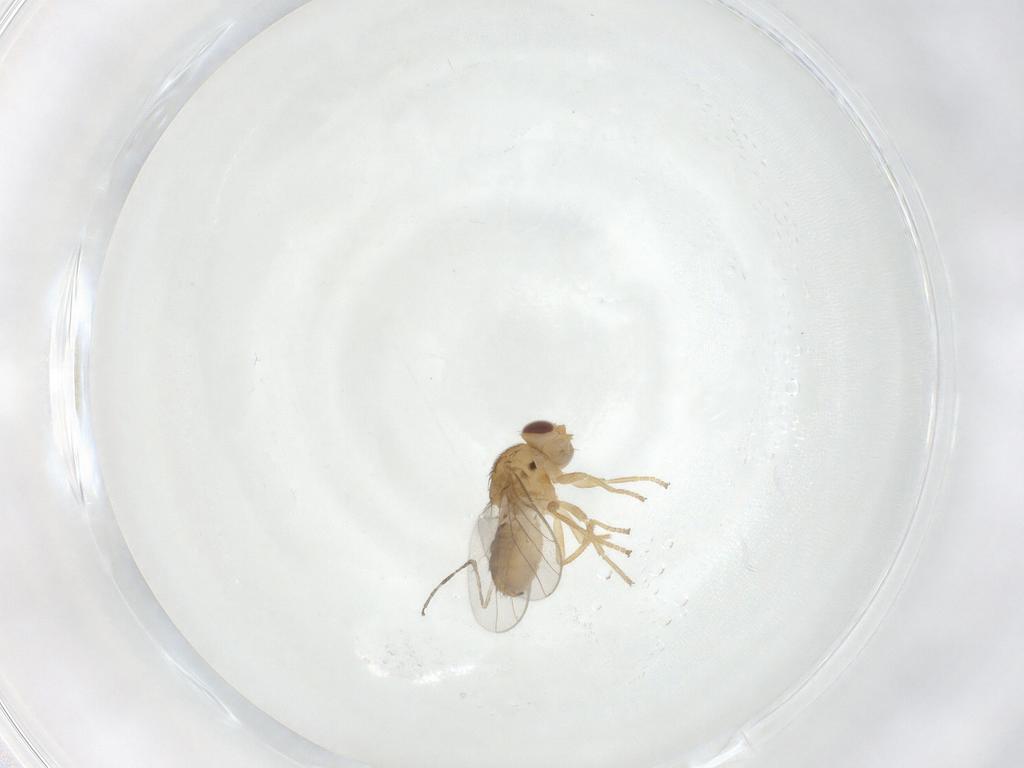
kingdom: Animalia
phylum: Arthropoda
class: Insecta
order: Diptera
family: Chloropidae
